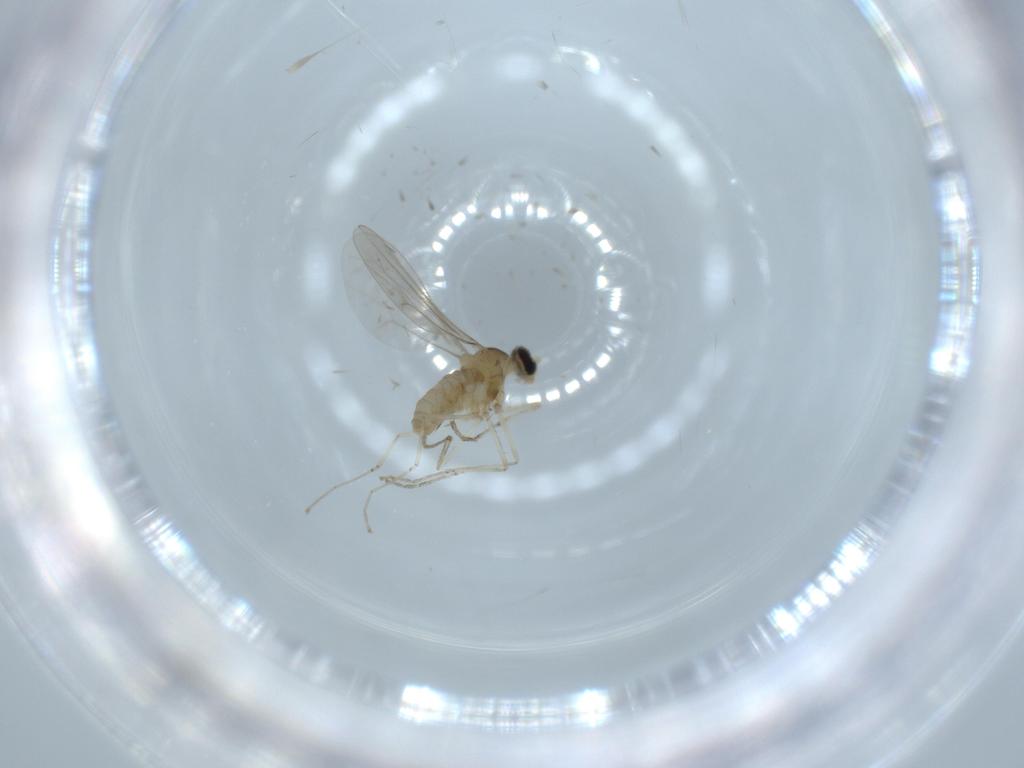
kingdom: Animalia
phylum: Arthropoda
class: Insecta
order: Diptera
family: Cecidomyiidae
